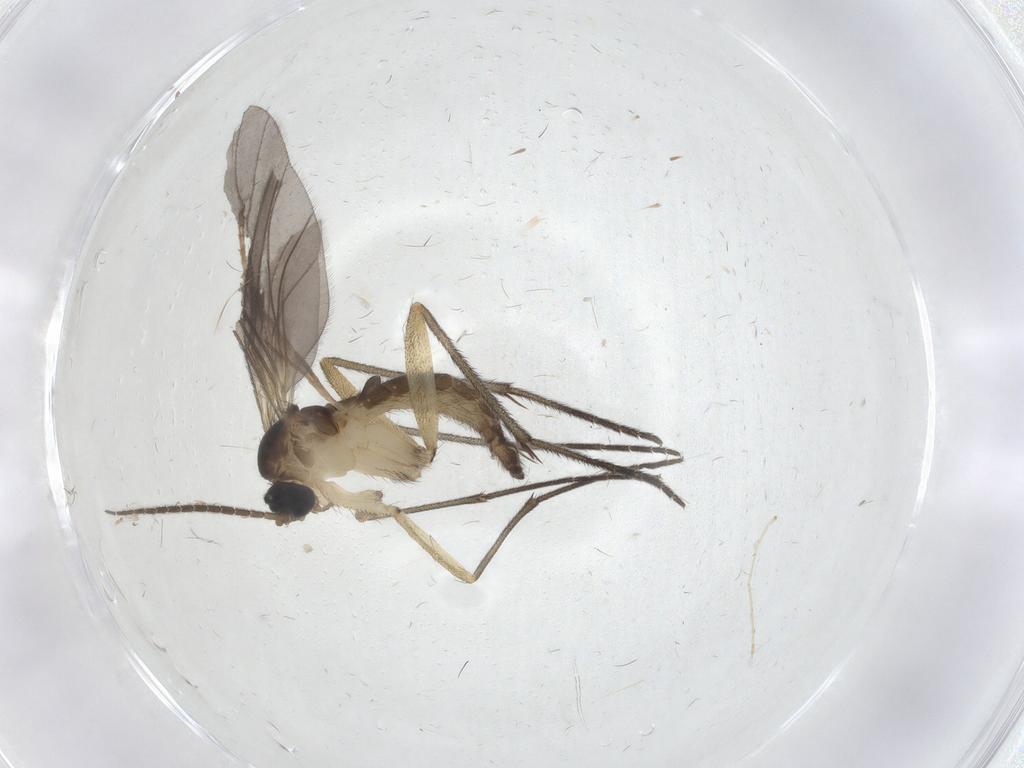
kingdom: Animalia
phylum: Arthropoda
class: Insecta
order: Diptera
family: Sciaridae
